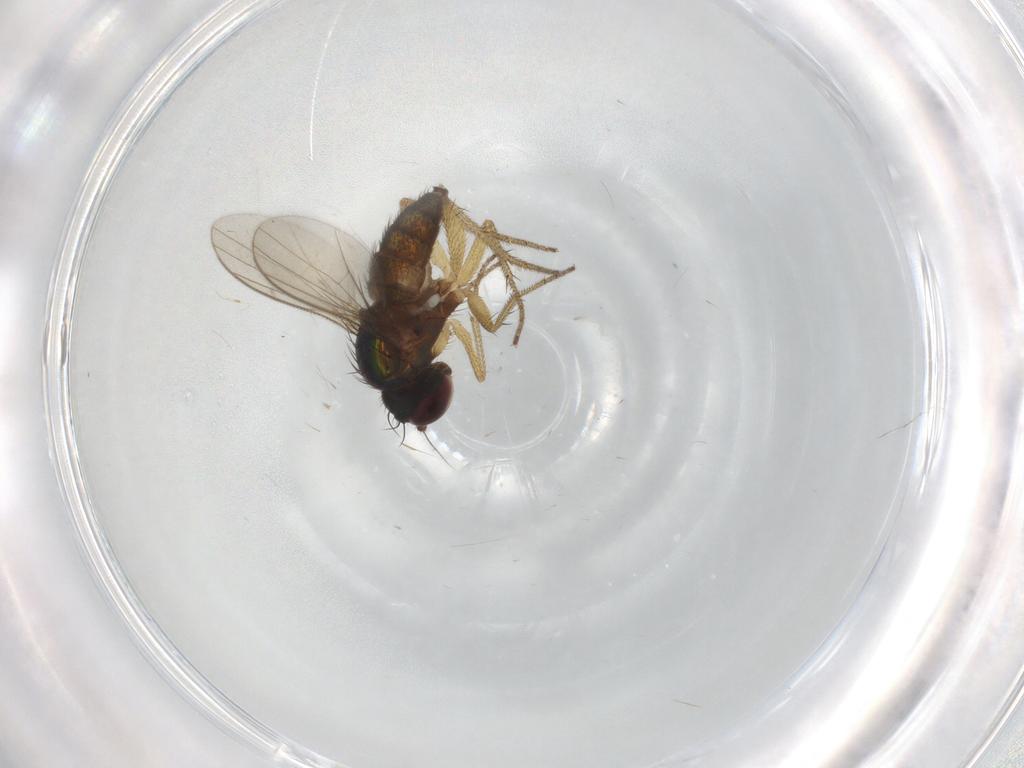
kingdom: Animalia
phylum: Arthropoda
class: Insecta
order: Diptera
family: Dolichopodidae
